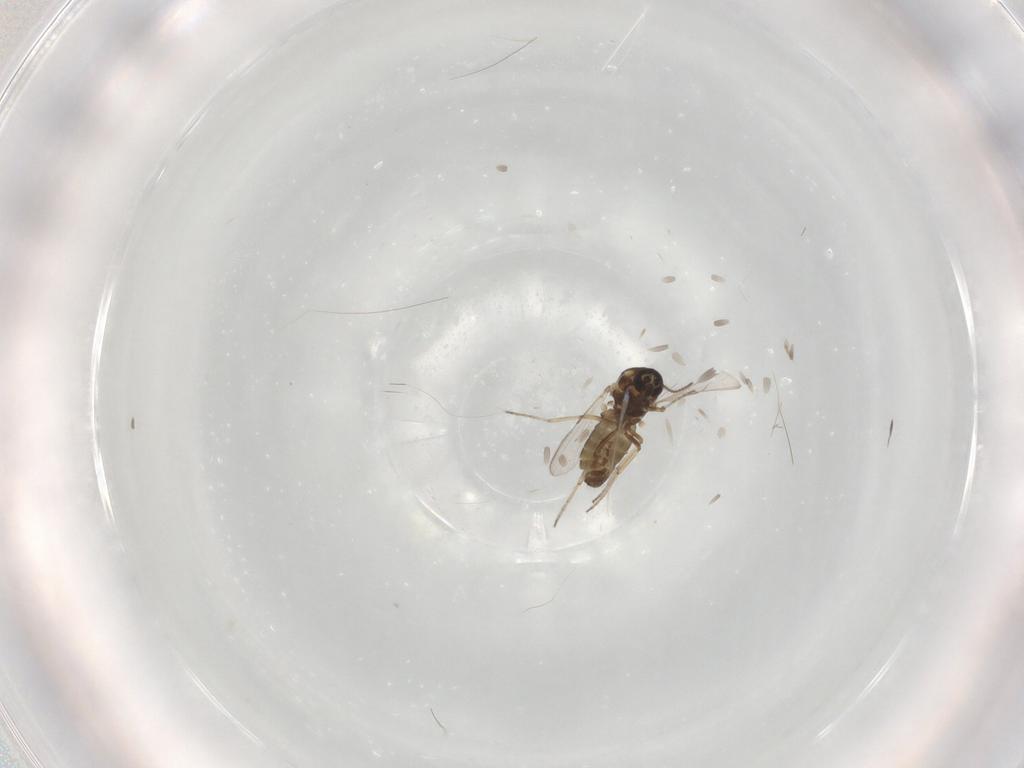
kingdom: Animalia
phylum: Arthropoda
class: Insecta
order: Diptera
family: Ceratopogonidae
